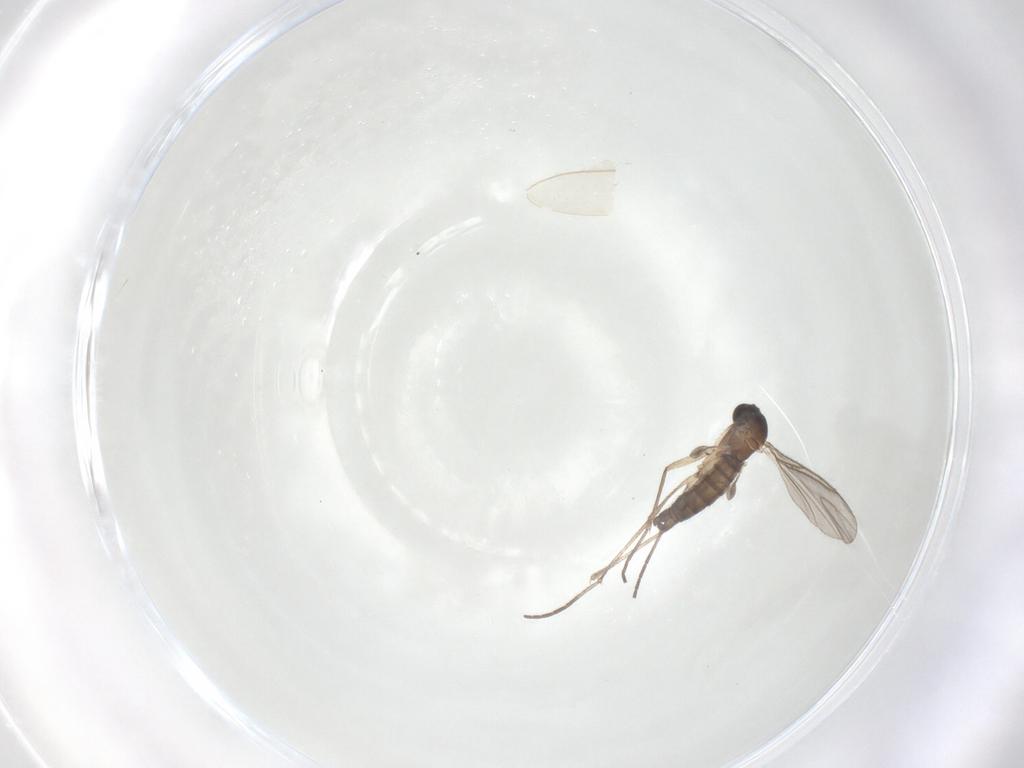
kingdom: Animalia
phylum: Arthropoda
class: Insecta
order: Diptera
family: Sciaridae
